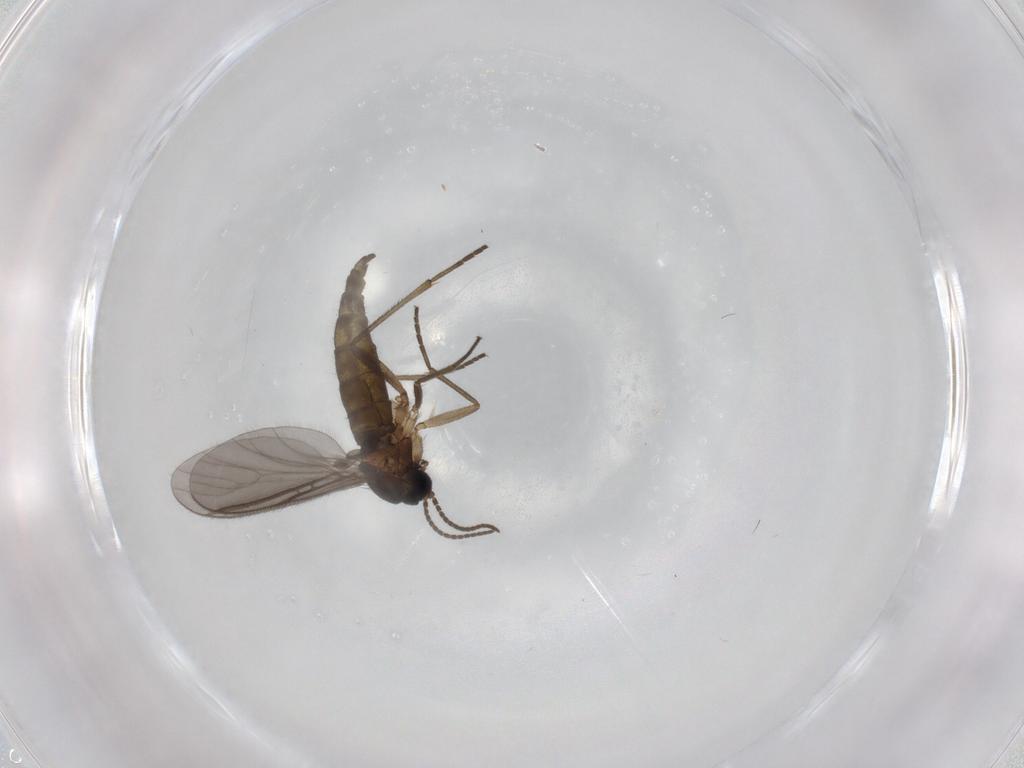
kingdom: Animalia
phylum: Arthropoda
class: Insecta
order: Diptera
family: Sciaridae
